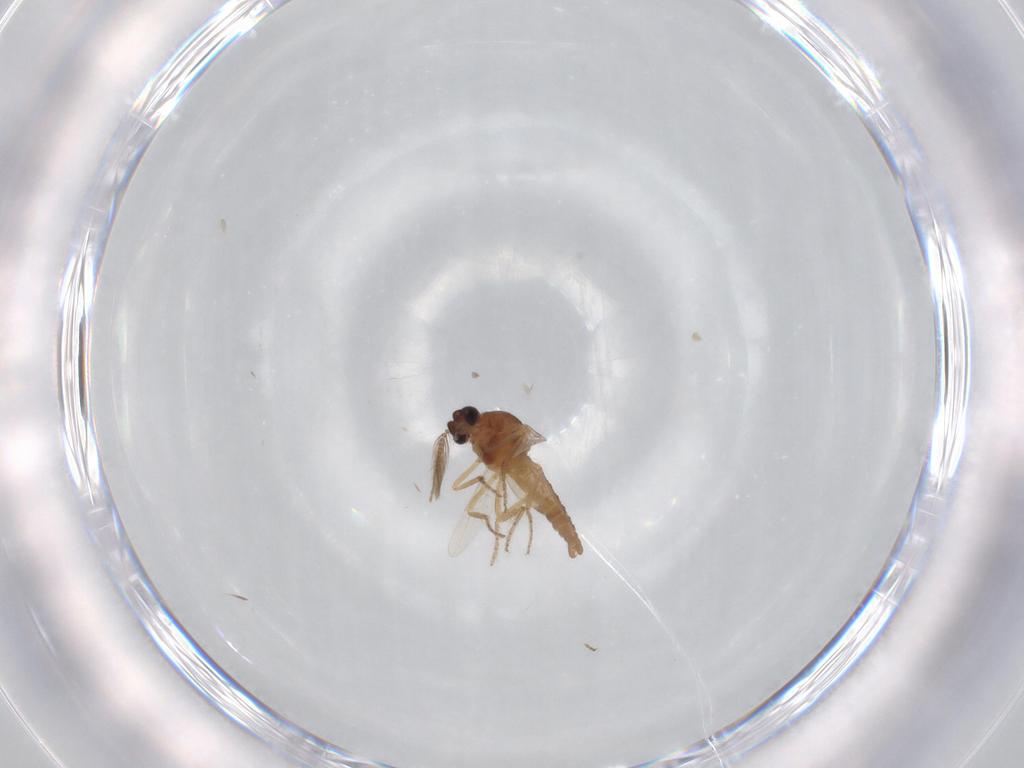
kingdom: Animalia
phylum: Arthropoda
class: Insecta
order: Diptera
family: Ceratopogonidae
